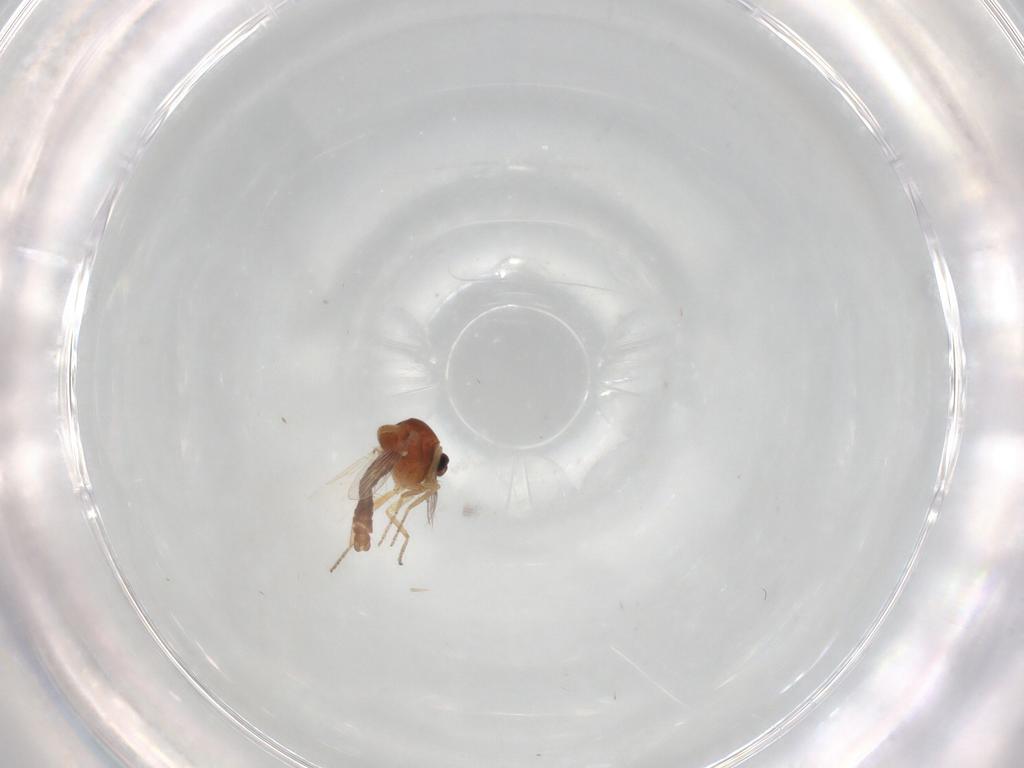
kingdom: Animalia
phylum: Arthropoda
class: Insecta
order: Diptera
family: Ceratopogonidae
